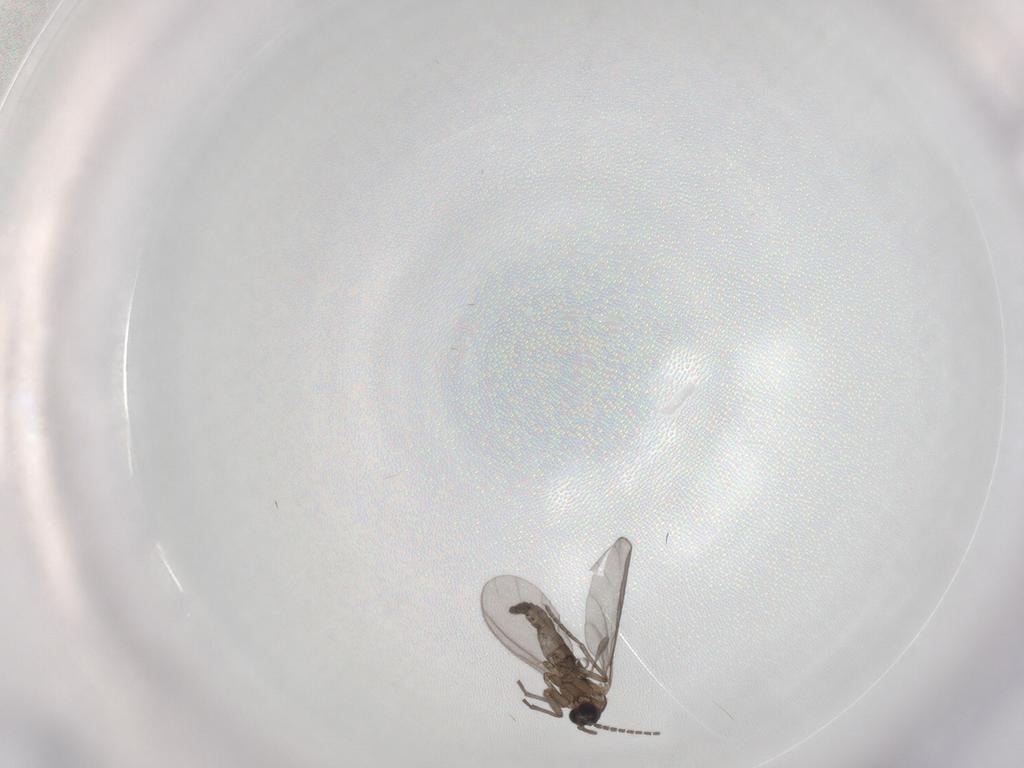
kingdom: Animalia
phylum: Arthropoda
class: Insecta
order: Diptera
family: Sciaridae
